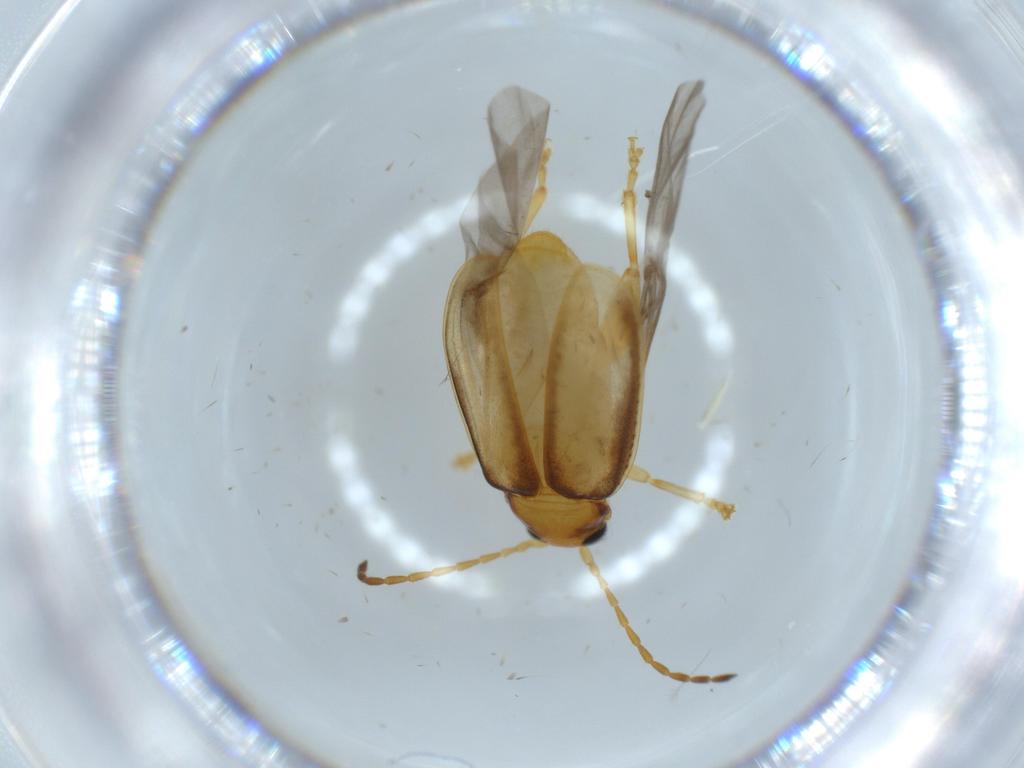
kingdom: Animalia
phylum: Arthropoda
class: Insecta
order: Coleoptera
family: Chrysomelidae
